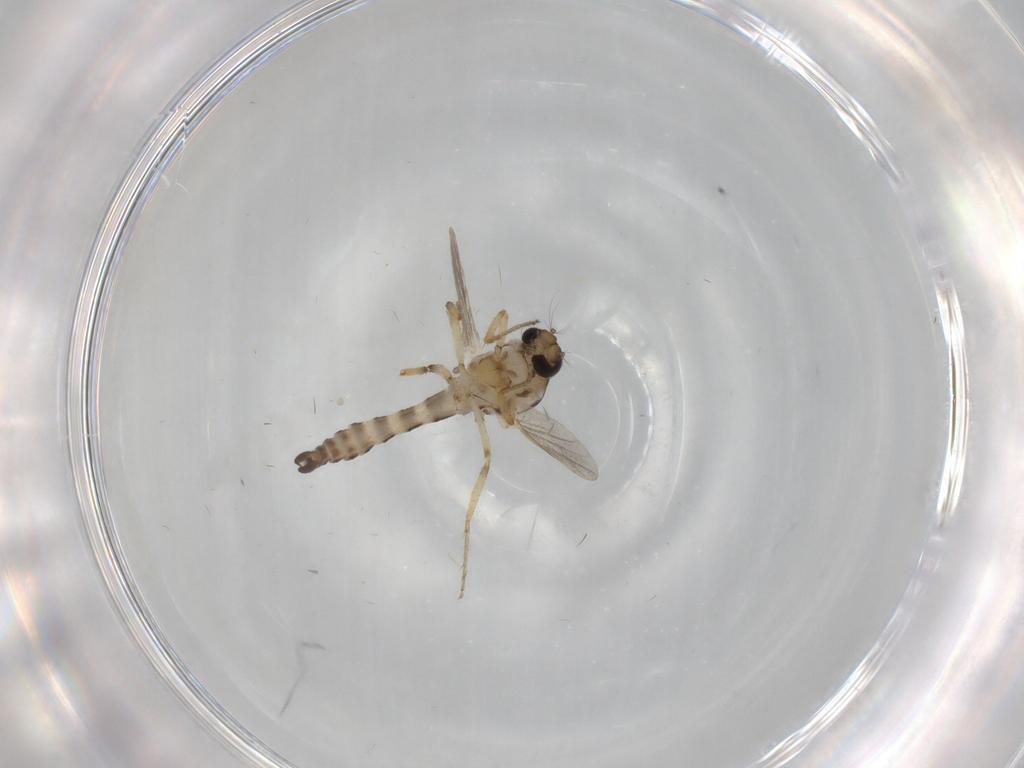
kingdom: Animalia
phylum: Arthropoda
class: Insecta
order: Diptera
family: Ceratopogonidae
